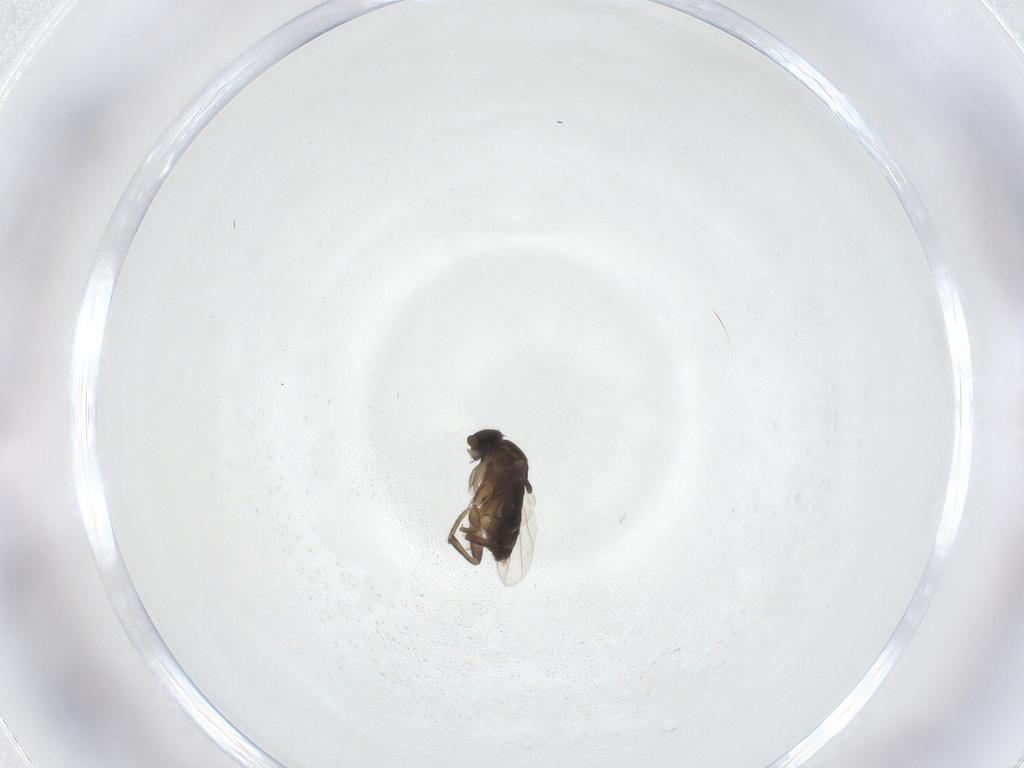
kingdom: Animalia
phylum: Arthropoda
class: Insecta
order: Diptera
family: Phoridae
